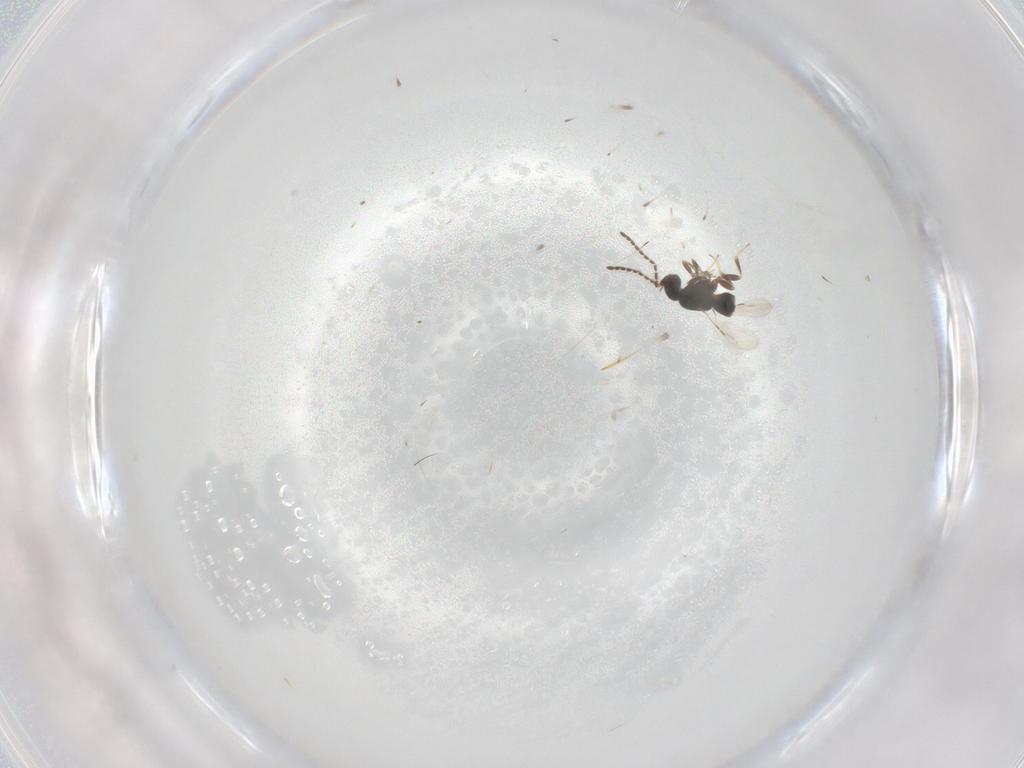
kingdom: Animalia
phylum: Arthropoda
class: Insecta
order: Hymenoptera
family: Formicidae
